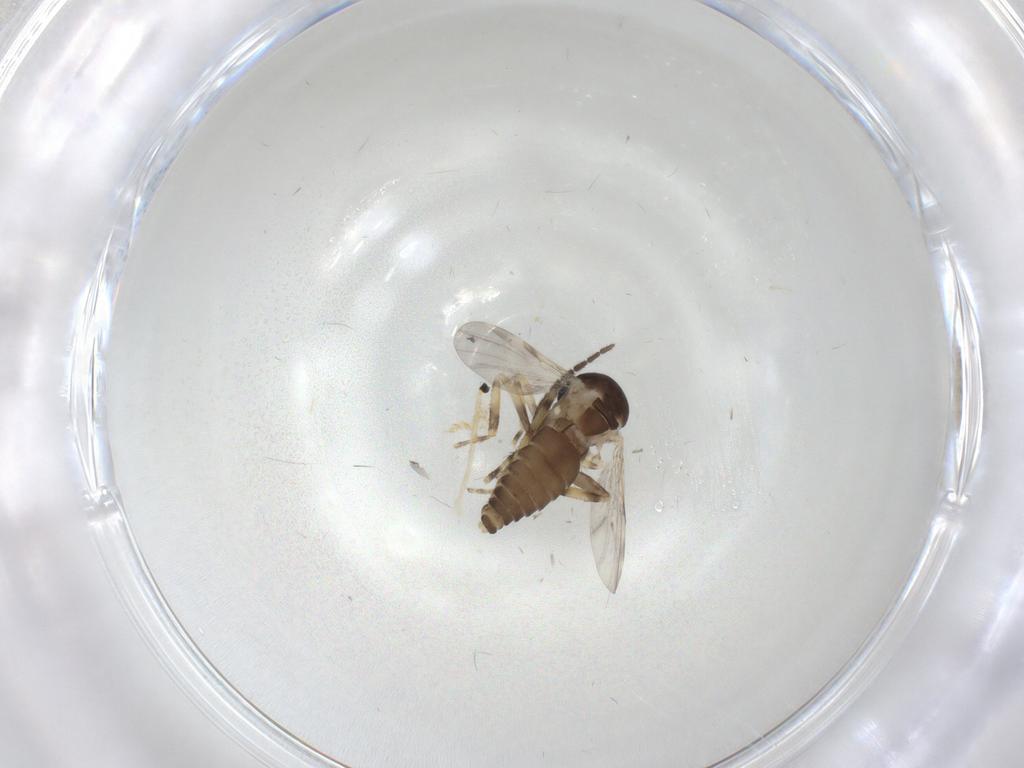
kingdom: Animalia
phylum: Arthropoda
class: Insecta
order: Diptera
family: Ceratopogonidae
